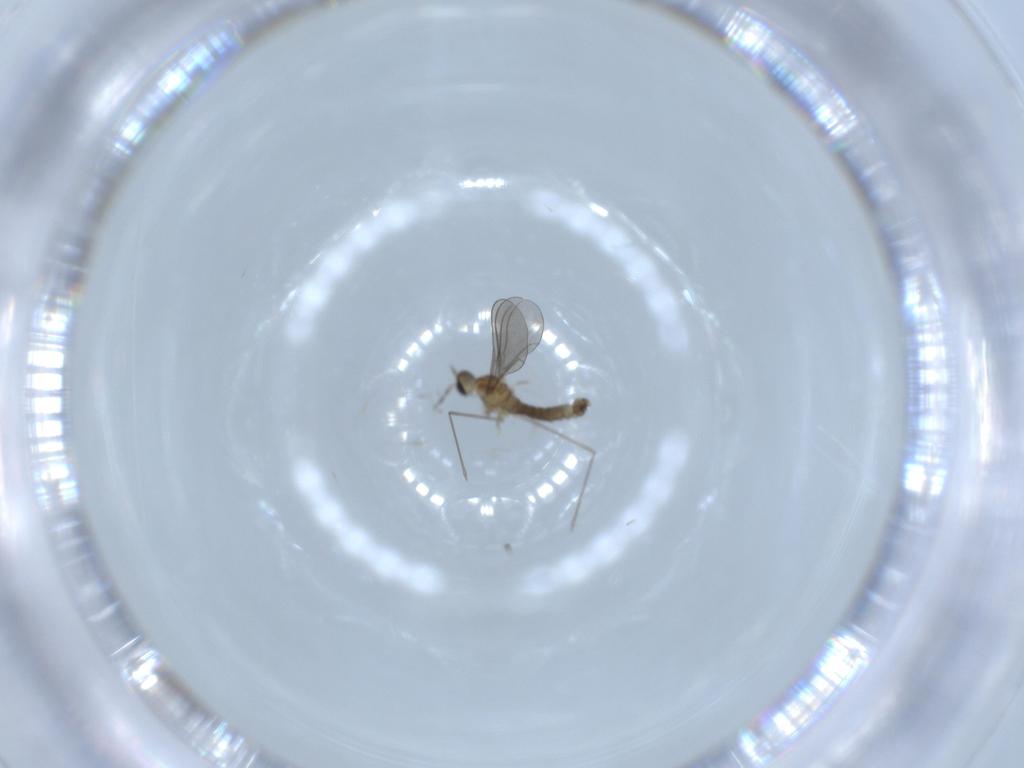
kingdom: Animalia
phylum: Arthropoda
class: Insecta
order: Diptera
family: Cecidomyiidae
